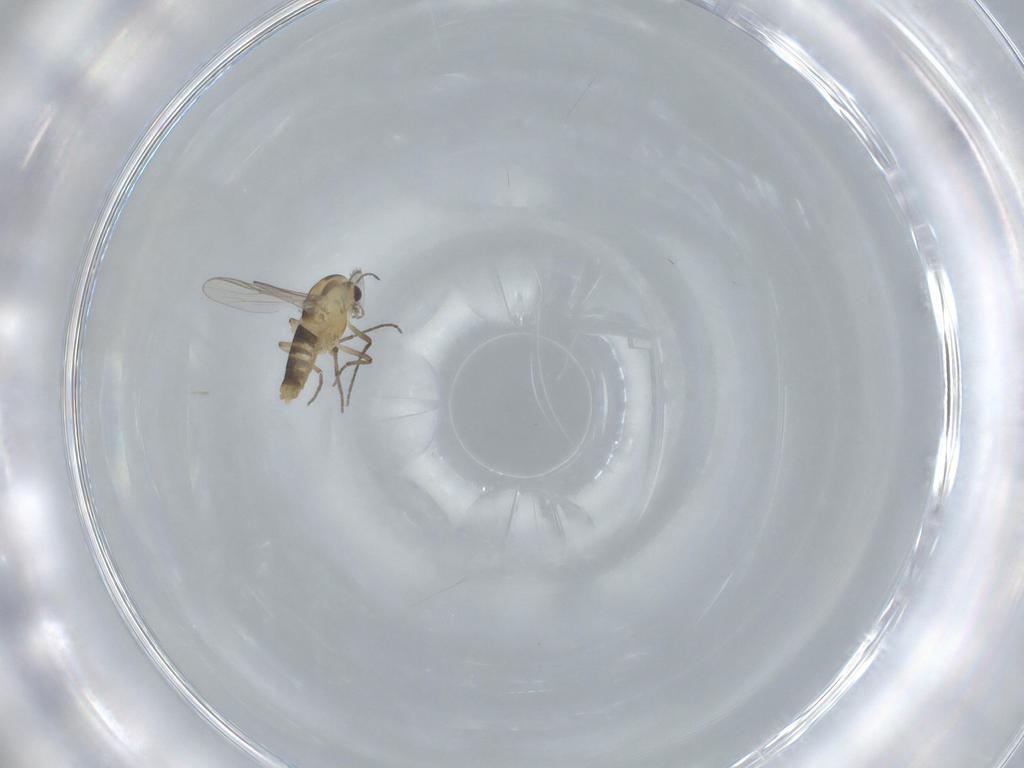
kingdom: Animalia
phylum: Arthropoda
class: Insecta
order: Diptera
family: Chironomidae
